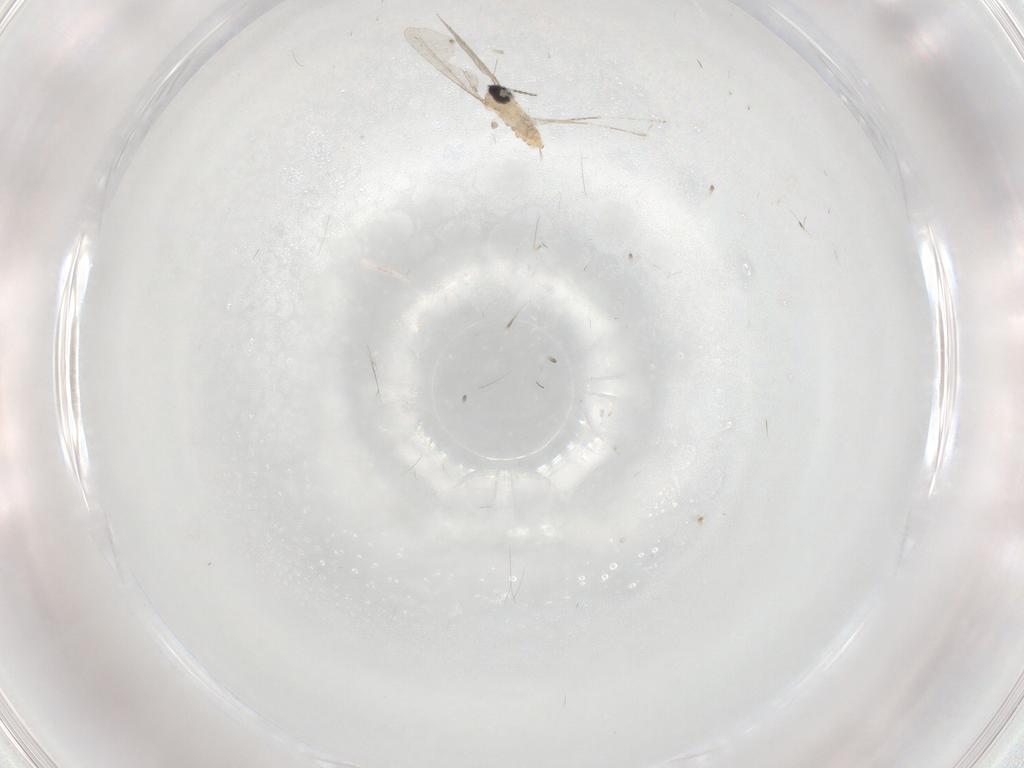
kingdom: Animalia
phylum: Arthropoda
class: Insecta
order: Diptera
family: Cecidomyiidae
